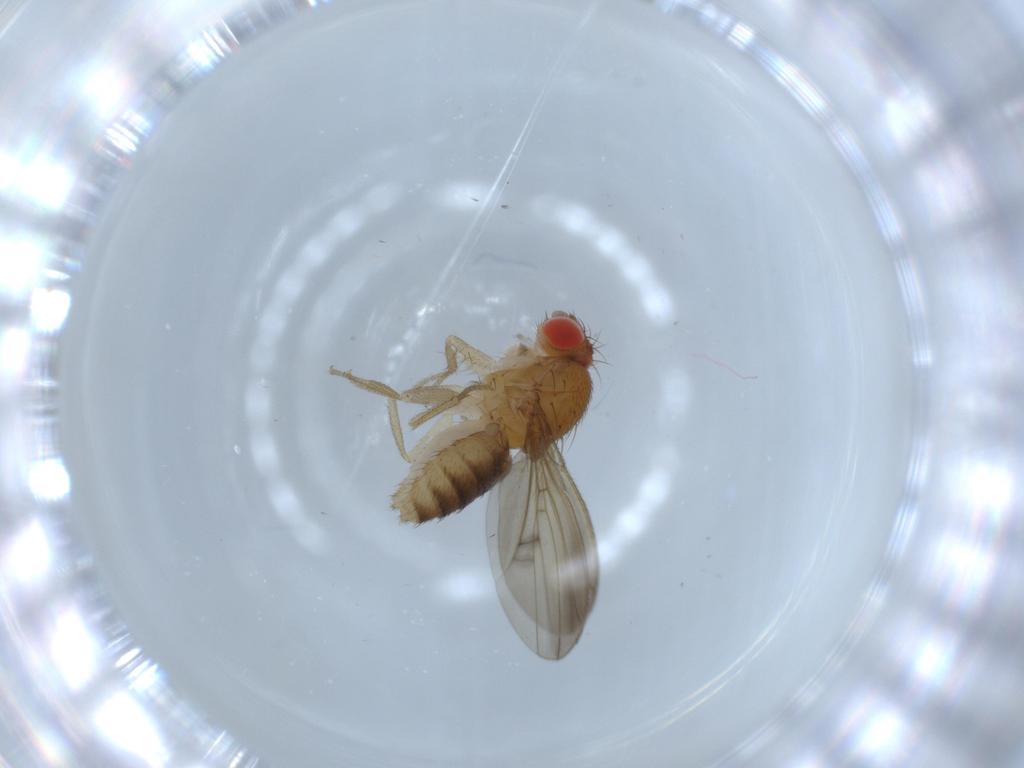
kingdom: Animalia
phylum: Arthropoda
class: Insecta
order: Diptera
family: Drosophilidae
